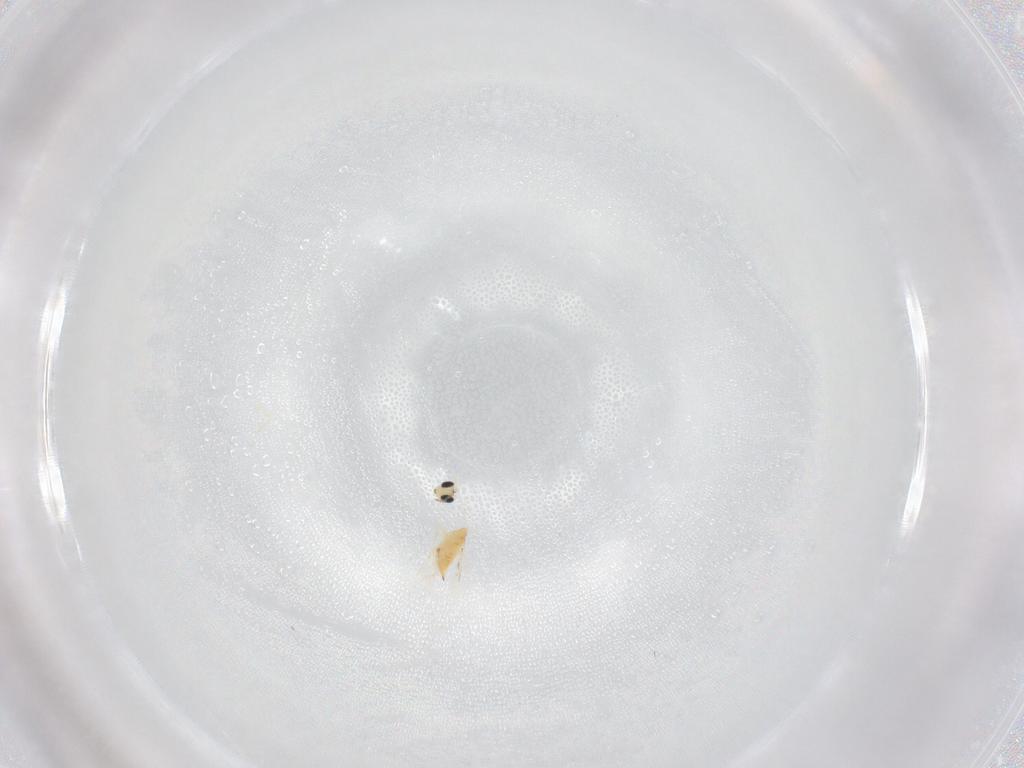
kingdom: Animalia
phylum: Arthropoda
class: Insecta
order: Hymenoptera
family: Trichogrammatidae
